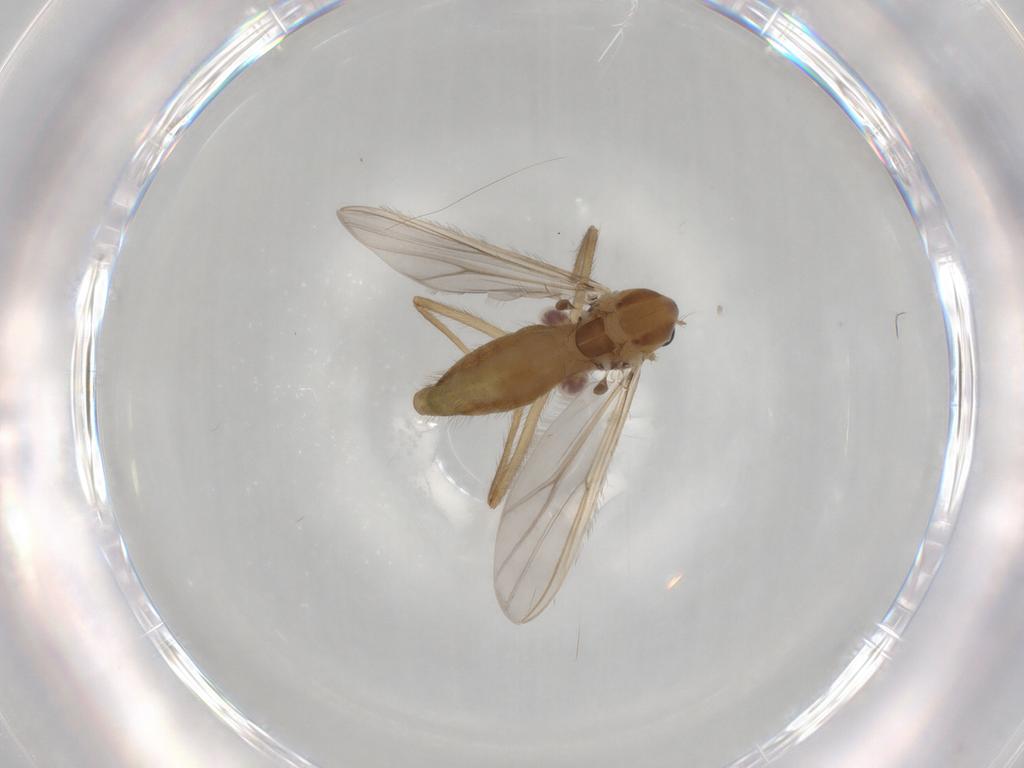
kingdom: Animalia
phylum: Arthropoda
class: Insecta
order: Diptera
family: Chironomidae
